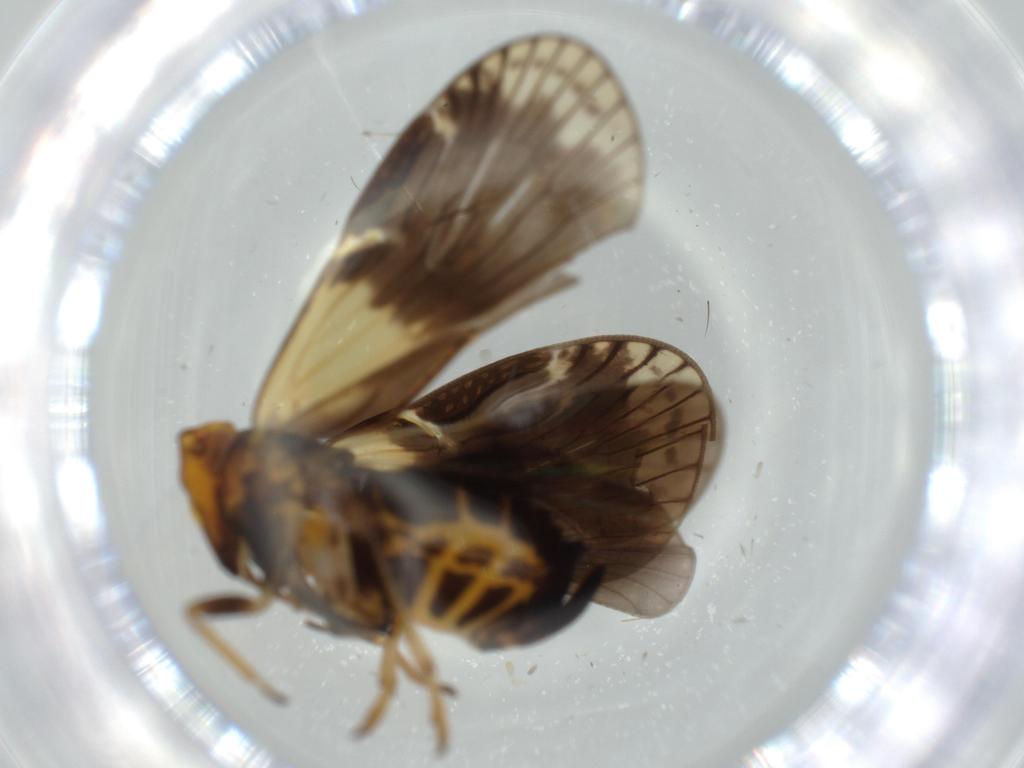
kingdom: Animalia
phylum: Arthropoda
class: Insecta
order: Hemiptera
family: Cixiidae
